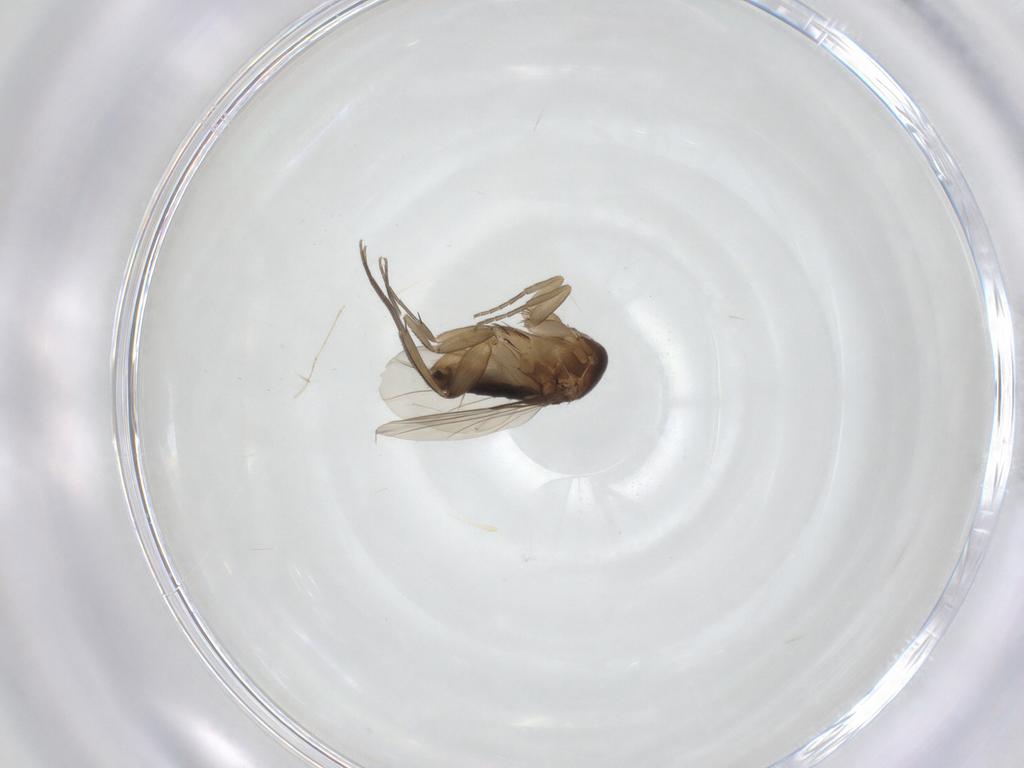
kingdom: Animalia
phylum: Arthropoda
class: Insecta
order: Diptera
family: Phoridae
